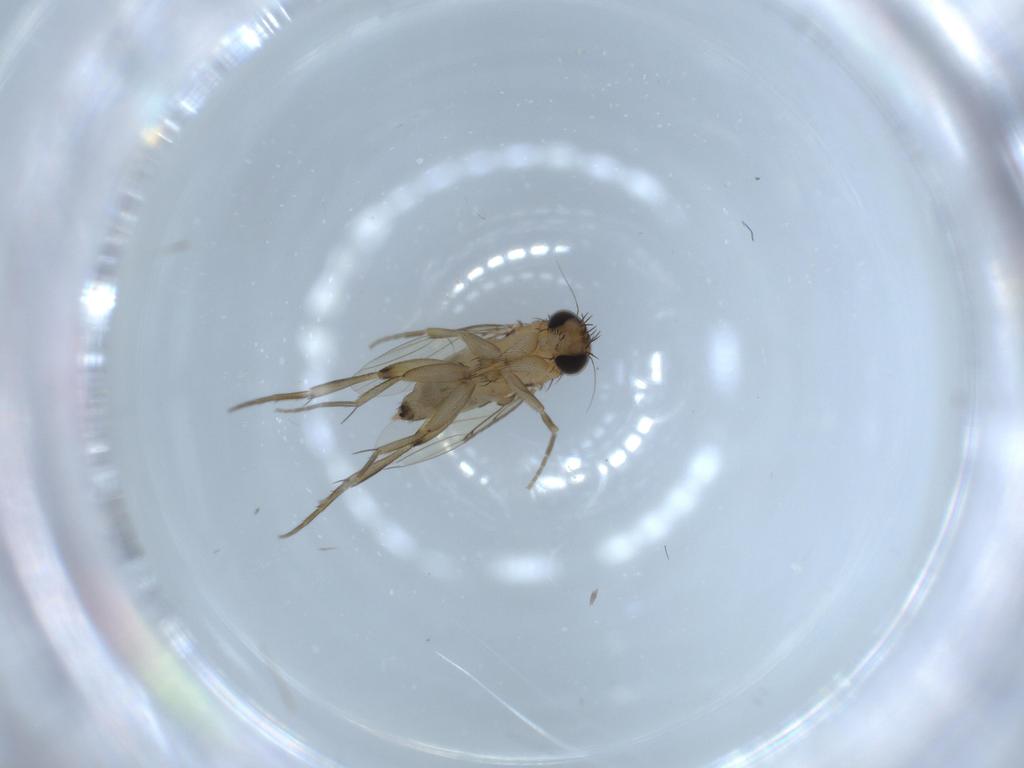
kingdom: Animalia
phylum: Arthropoda
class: Insecta
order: Diptera
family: Phoridae
